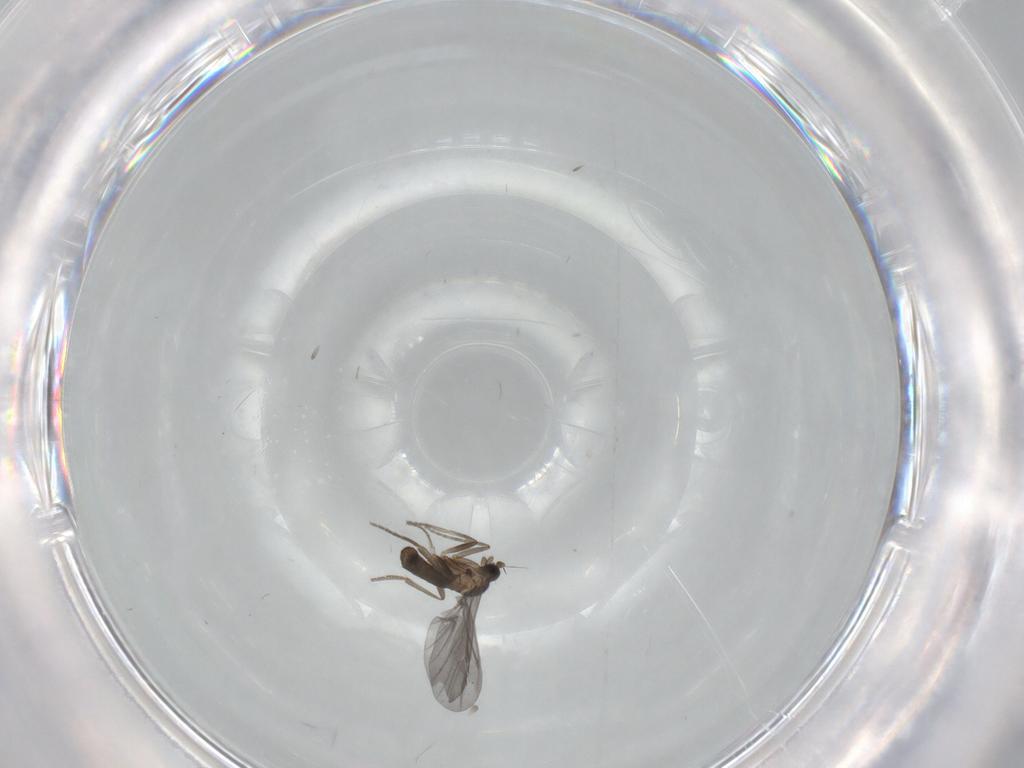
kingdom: Animalia
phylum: Arthropoda
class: Insecta
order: Diptera
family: Phoridae
